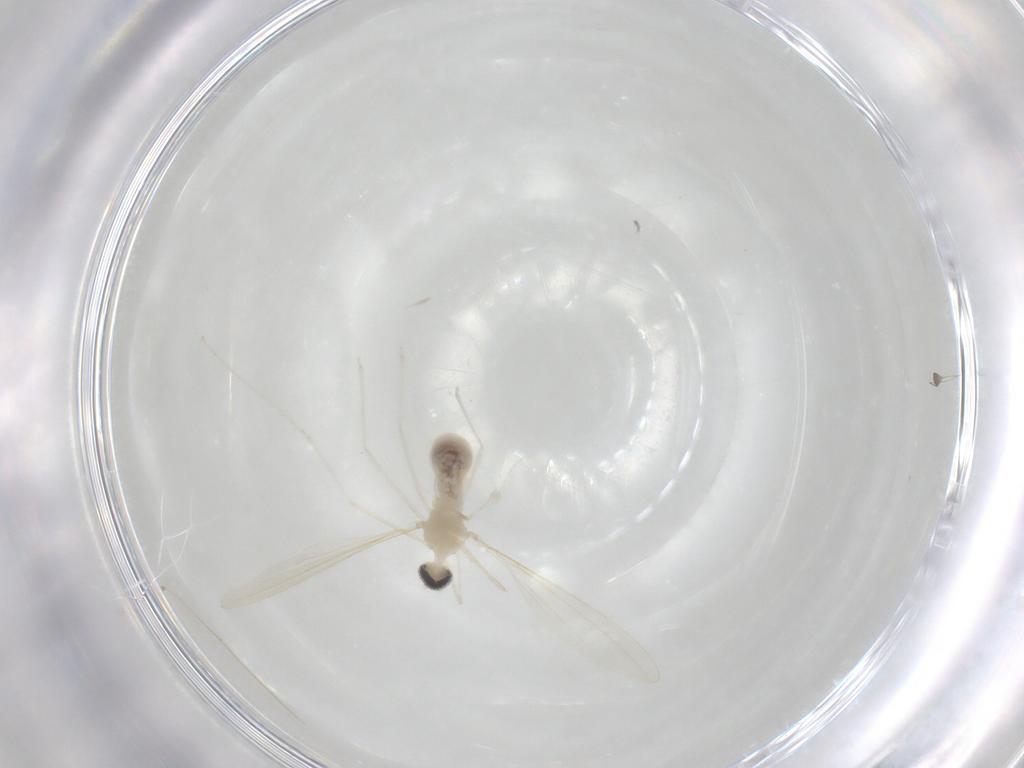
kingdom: Animalia
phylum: Arthropoda
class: Insecta
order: Diptera
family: Cecidomyiidae
